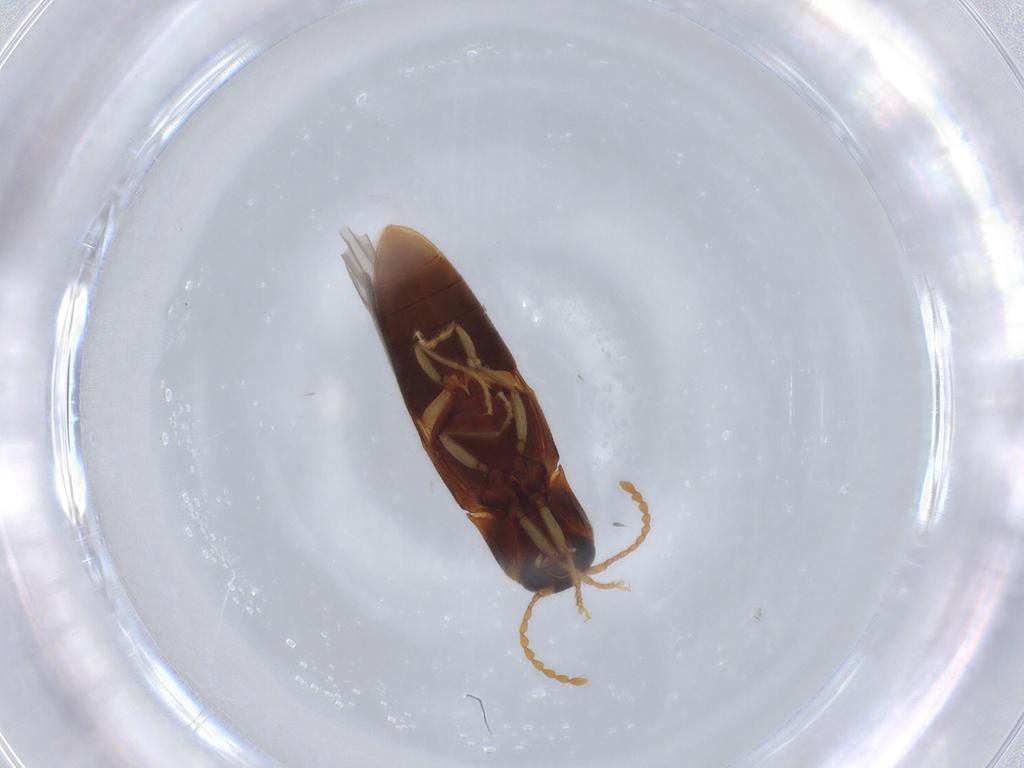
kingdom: Animalia
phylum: Arthropoda
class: Insecta
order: Coleoptera
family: Elateridae
